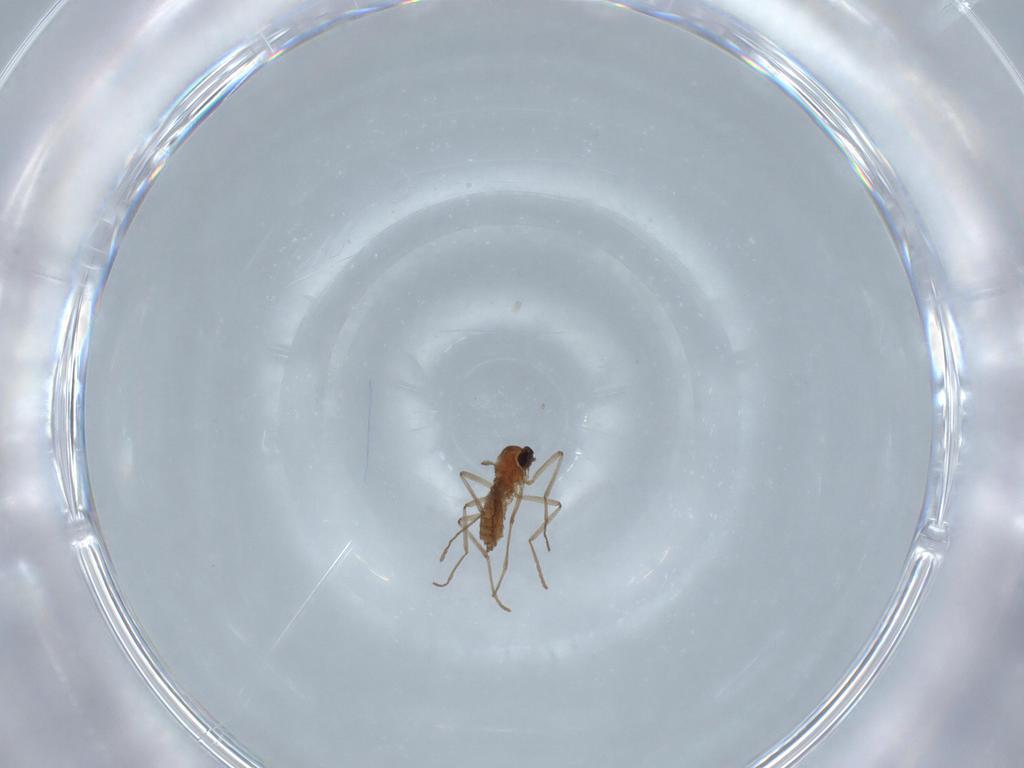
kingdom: Animalia
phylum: Arthropoda
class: Insecta
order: Diptera
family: Cecidomyiidae
